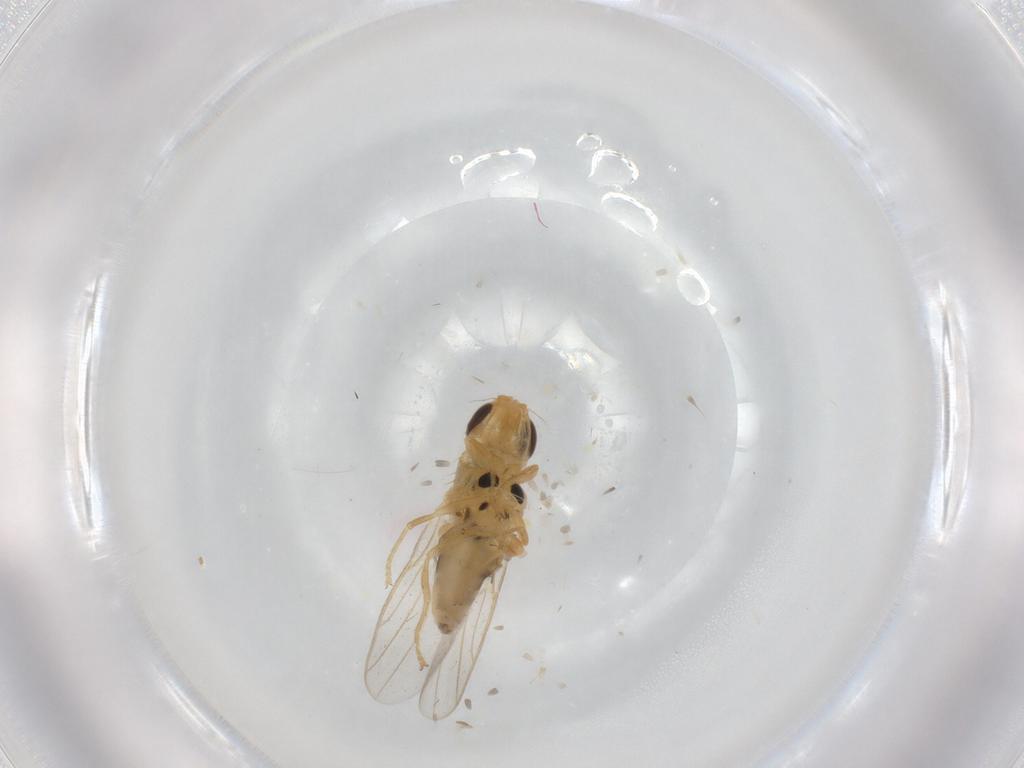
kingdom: Animalia
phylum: Arthropoda
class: Insecta
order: Diptera
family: Chloropidae
